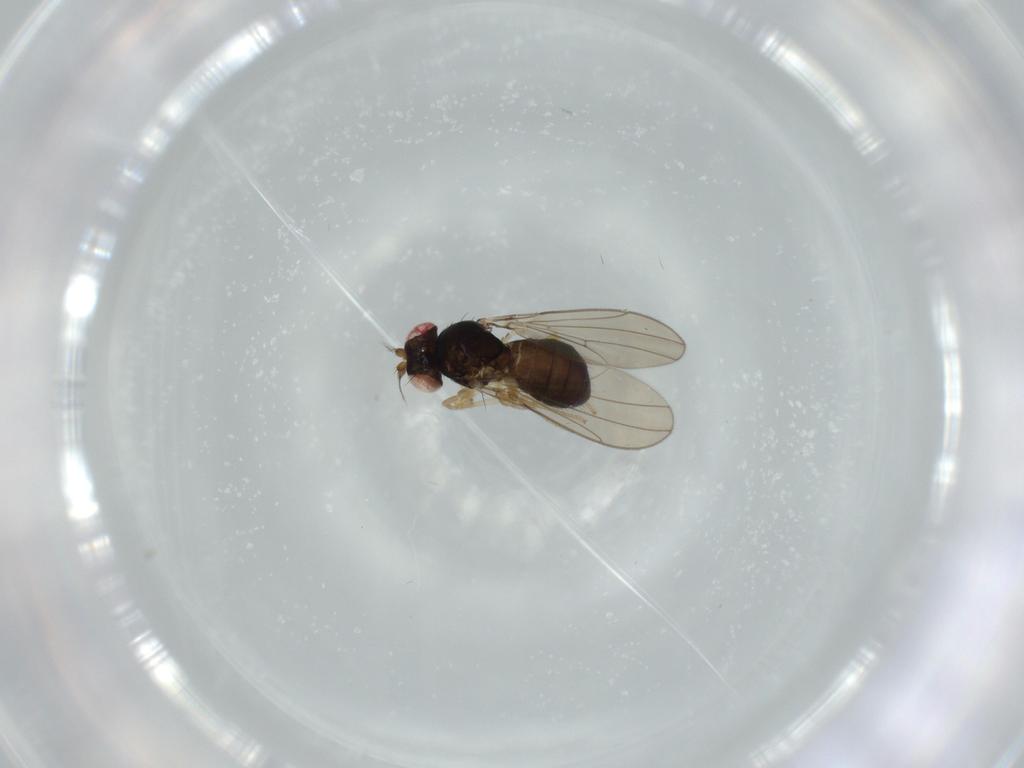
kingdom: Animalia
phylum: Arthropoda
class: Insecta
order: Diptera
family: Drosophilidae
